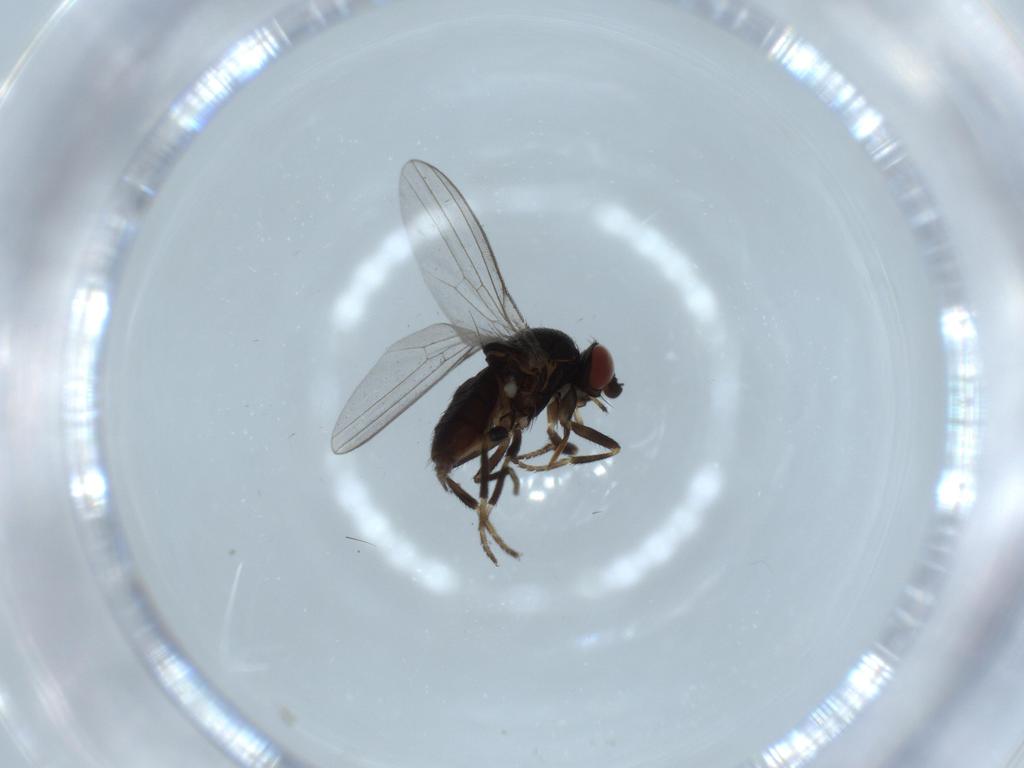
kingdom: Animalia
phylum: Arthropoda
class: Insecta
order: Diptera
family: Milichiidae
